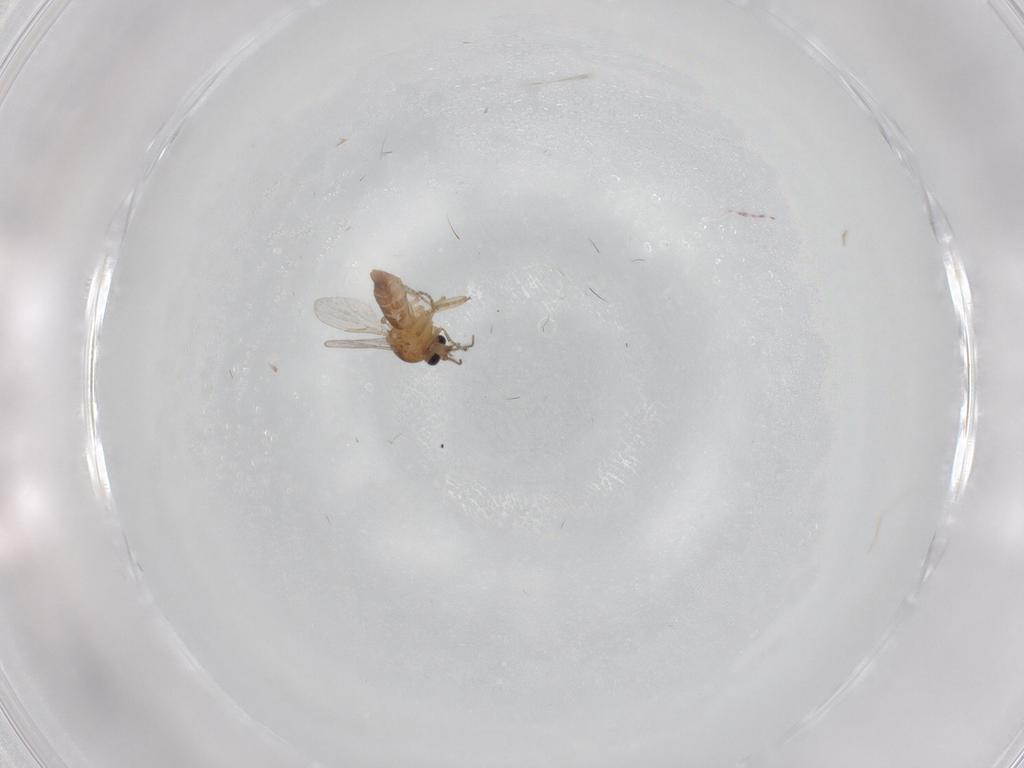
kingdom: Animalia
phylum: Arthropoda
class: Insecta
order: Diptera
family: Ceratopogonidae
